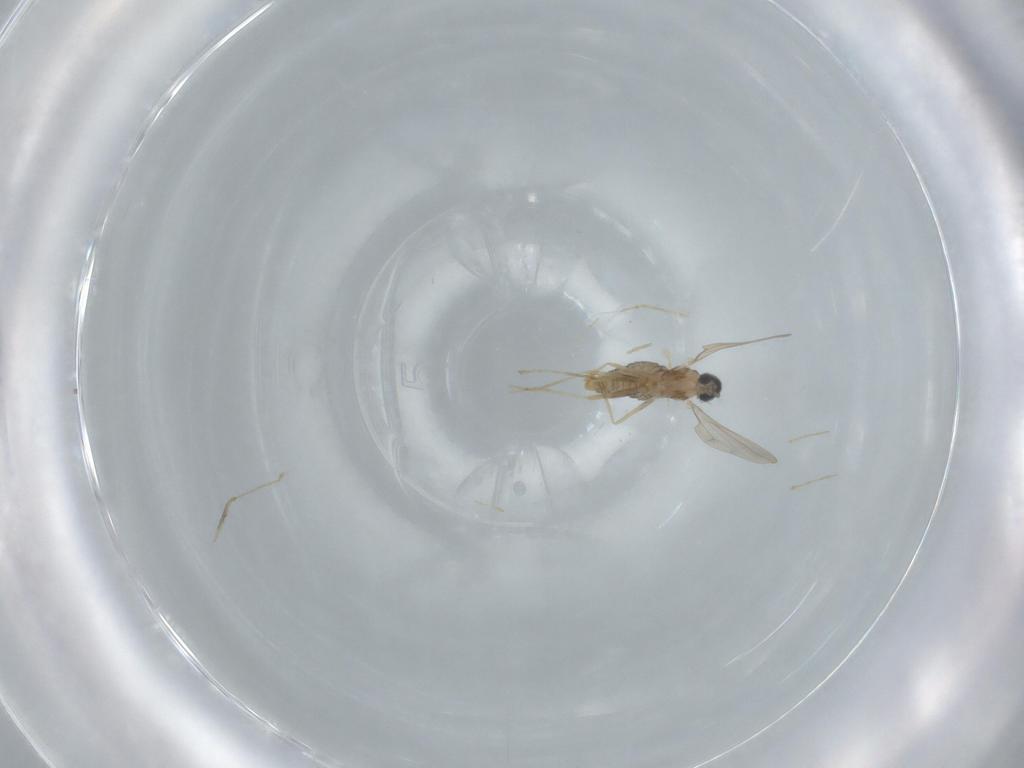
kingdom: Animalia
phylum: Arthropoda
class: Insecta
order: Diptera
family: Cecidomyiidae
